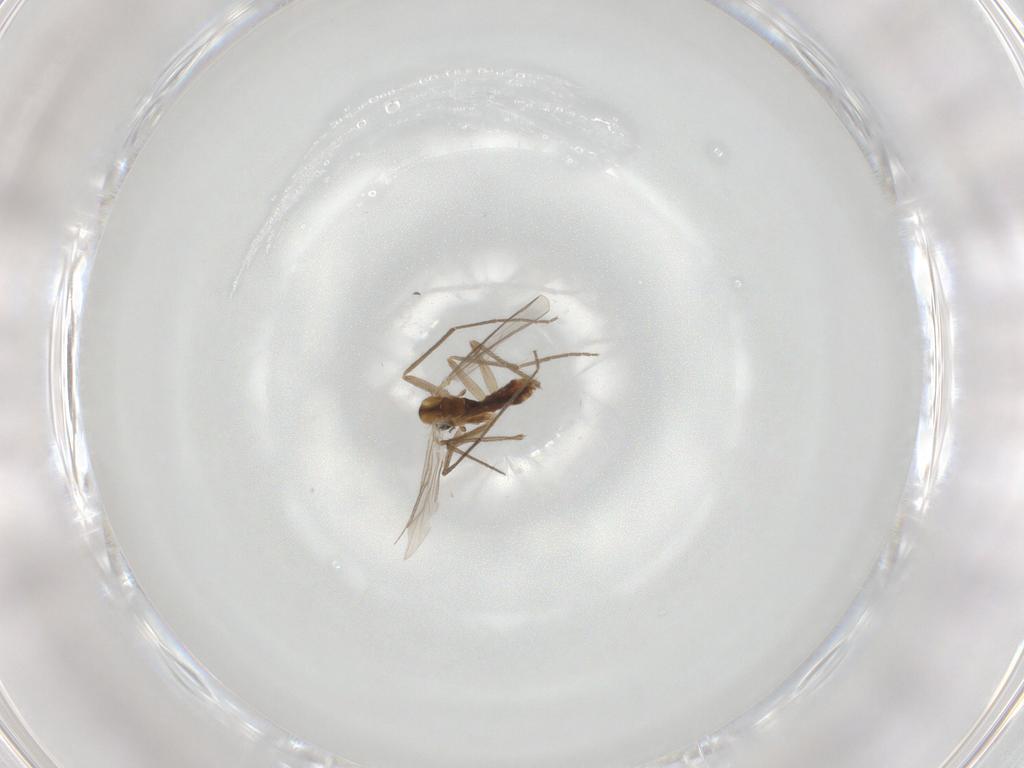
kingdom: Animalia
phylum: Arthropoda
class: Insecta
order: Diptera
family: Chironomidae
